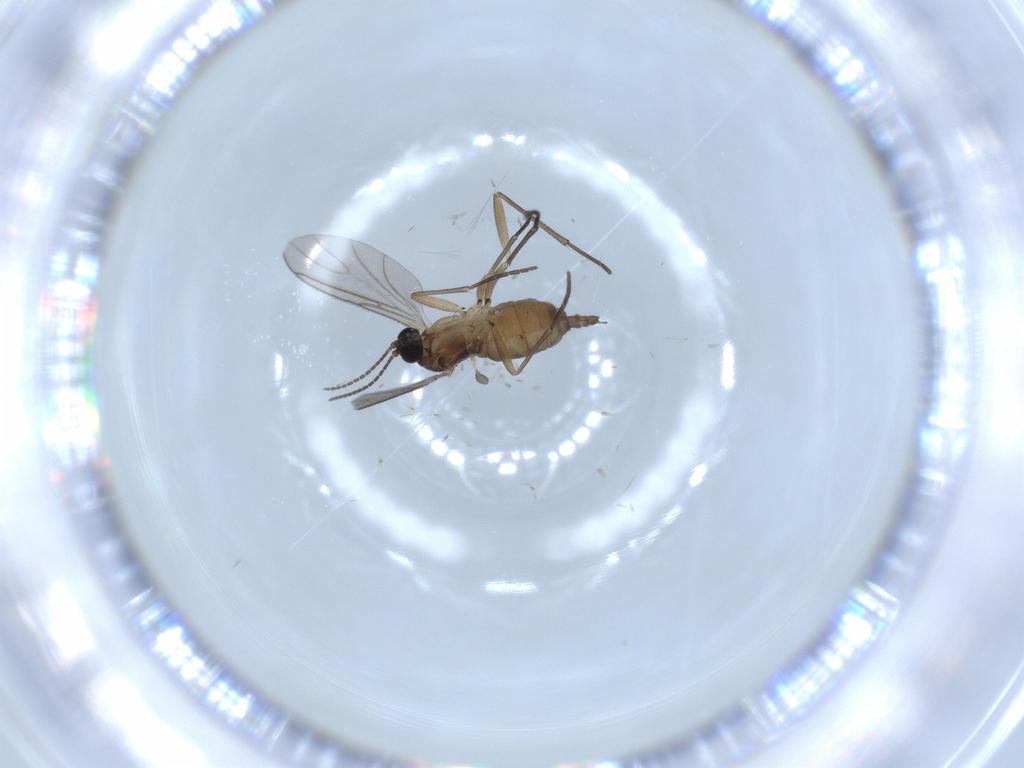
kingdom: Animalia
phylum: Arthropoda
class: Insecta
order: Diptera
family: Sciaridae
